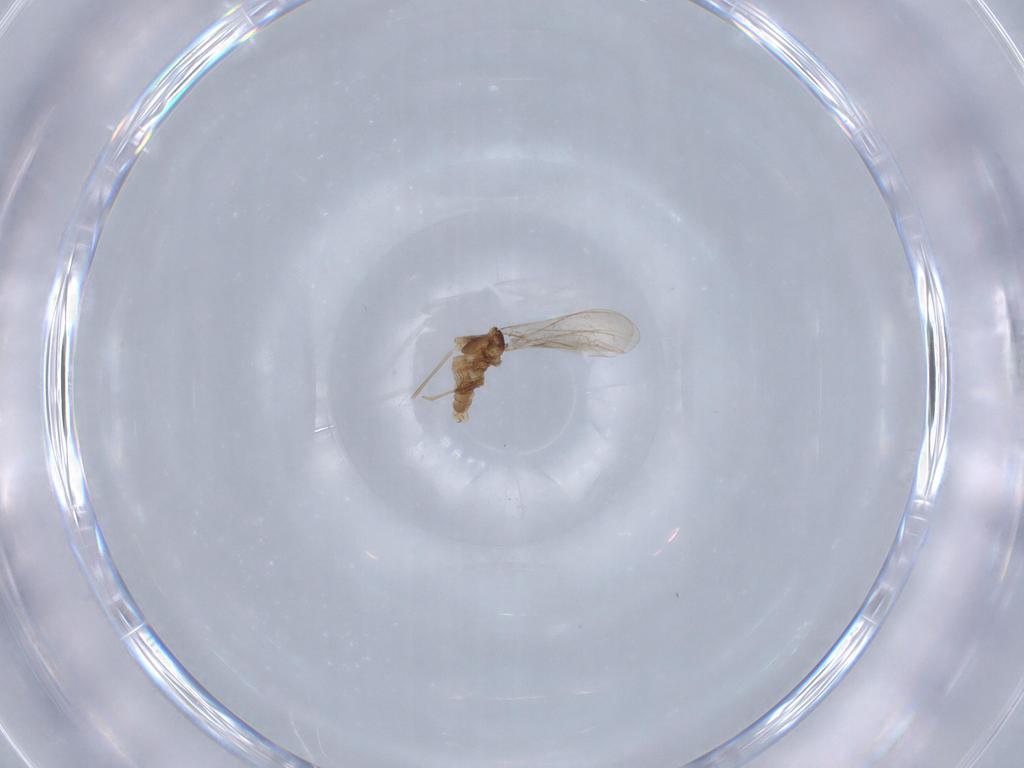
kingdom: Animalia
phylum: Arthropoda
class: Insecta
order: Diptera
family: Cecidomyiidae
